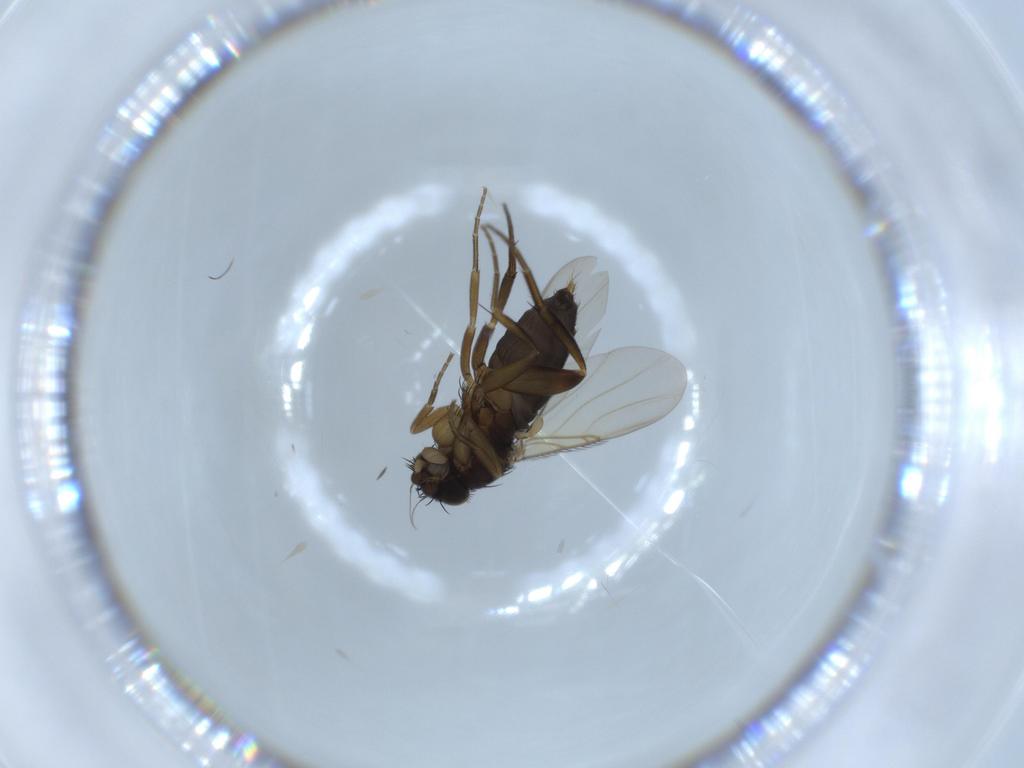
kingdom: Animalia
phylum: Arthropoda
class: Insecta
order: Diptera
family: Phoridae
